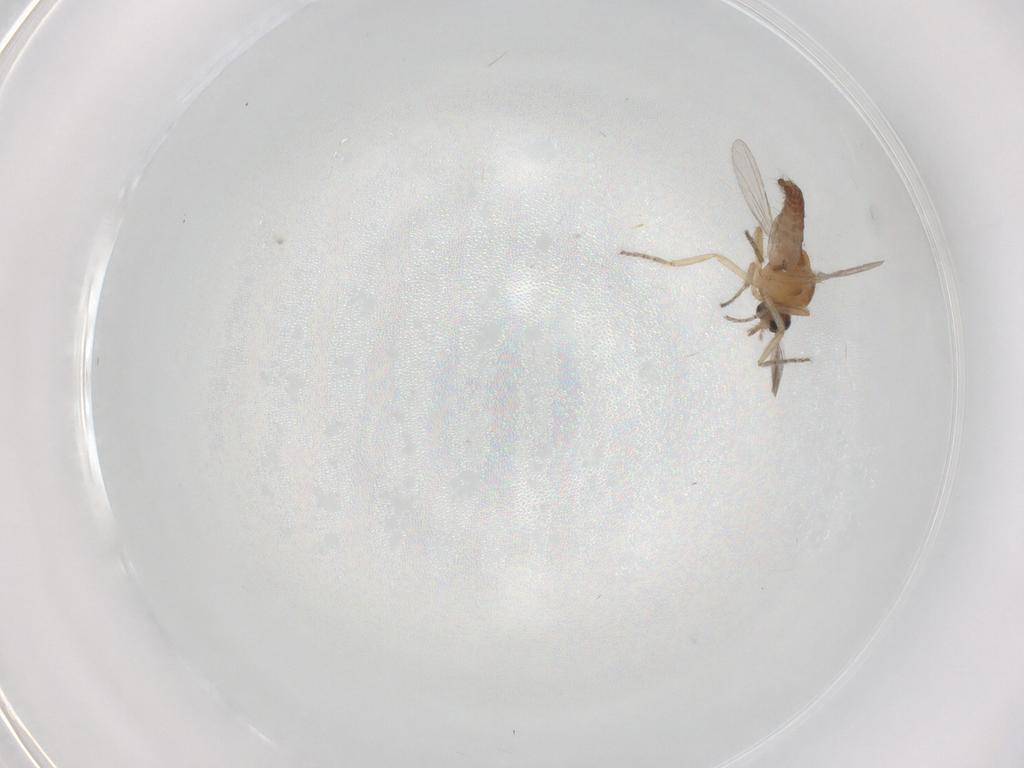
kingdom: Animalia
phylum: Arthropoda
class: Insecta
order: Diptera
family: Ceratopogonidae
